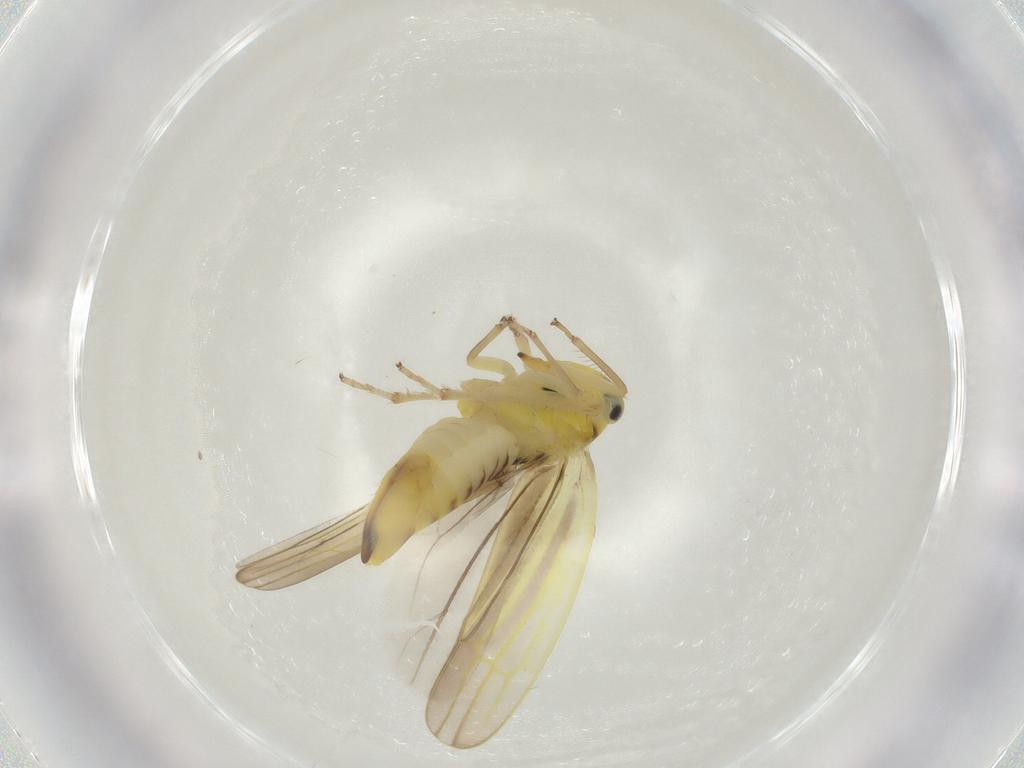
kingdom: Animalia
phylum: Arthropoda
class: Insecta
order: Hemiptera
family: Cicadellidae
